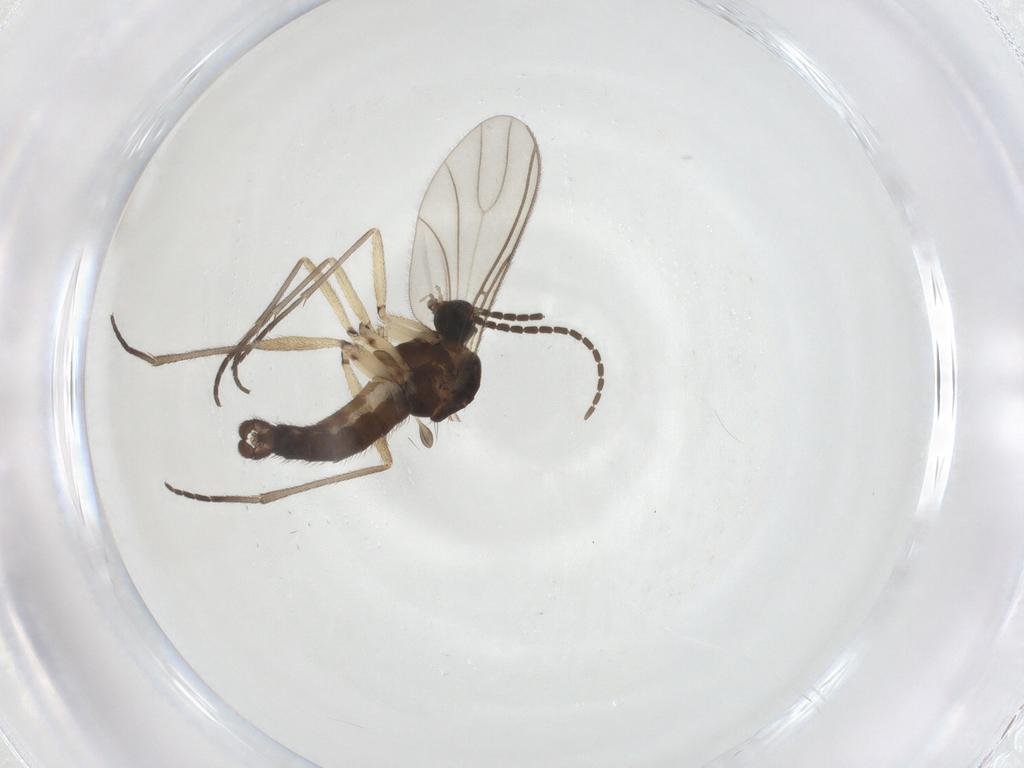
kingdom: Animalia
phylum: Arthropoda
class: Insecta
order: Diptera
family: Sciaridae
